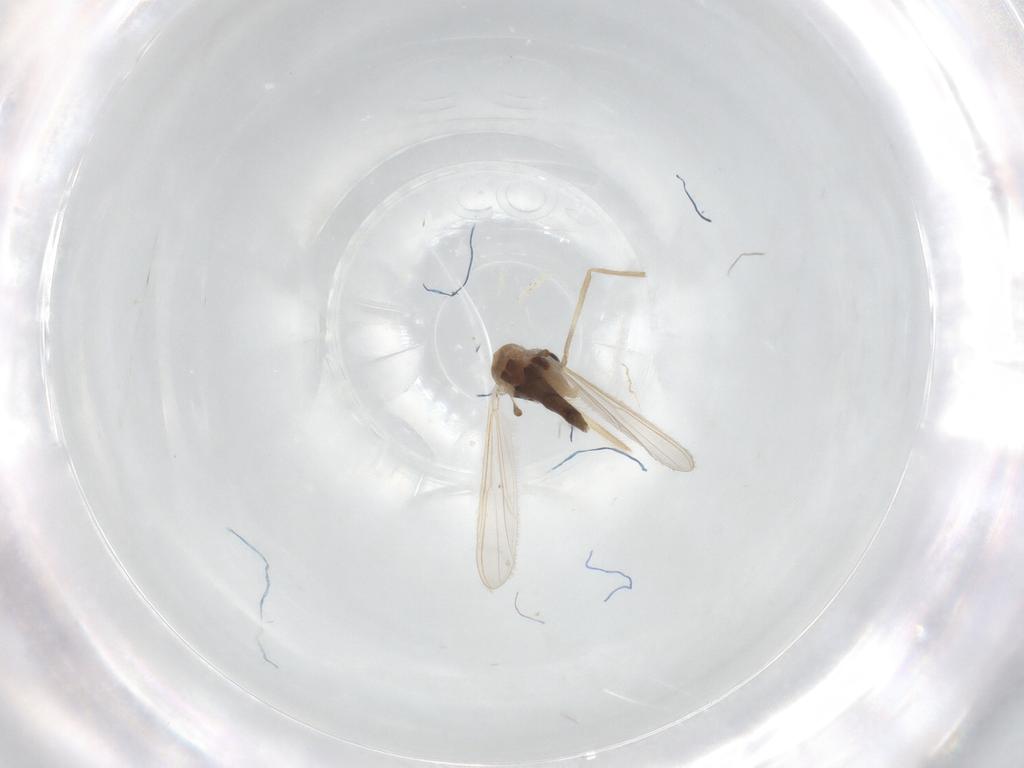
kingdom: Animalia
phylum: Arthropoda
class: Insecta
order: Diptera
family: Cecidomyiidae
